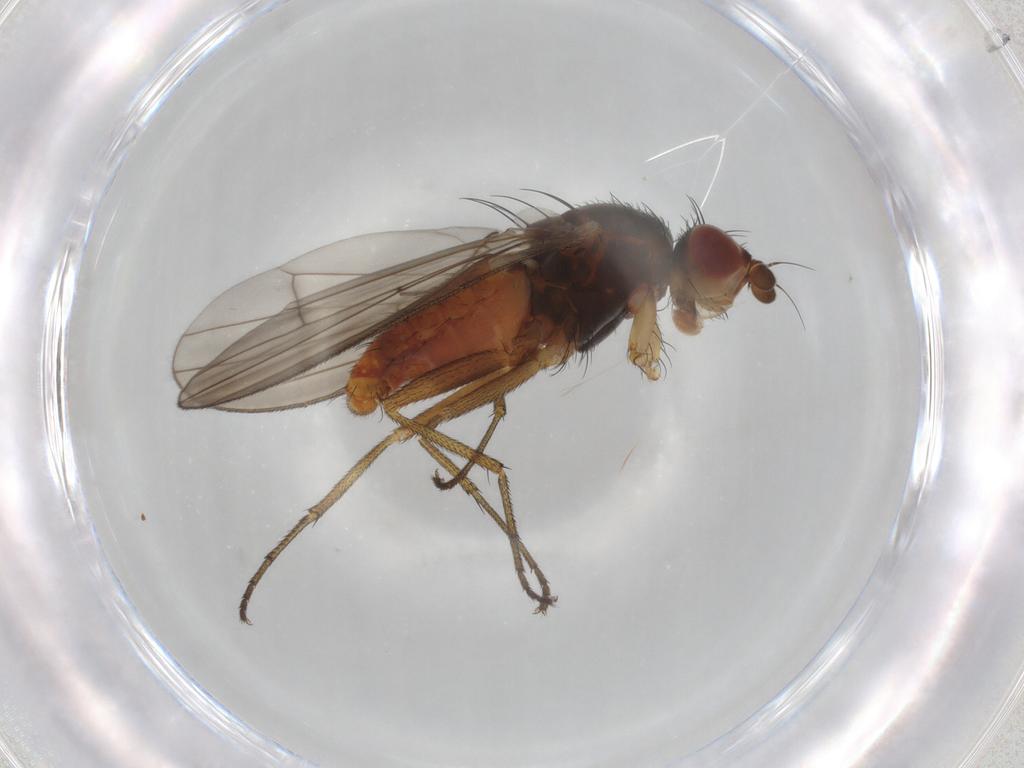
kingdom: Animalia
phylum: Arthropoda
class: Insecta
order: Diptera
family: Heleomyzidae
